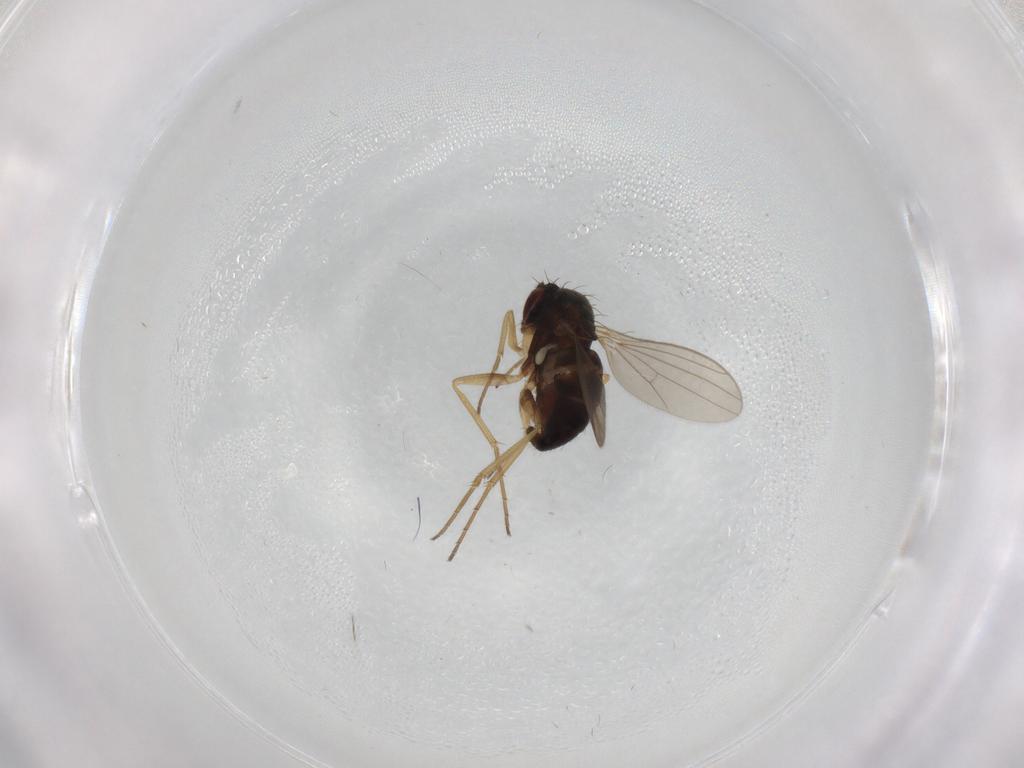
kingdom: Animalia
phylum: Arthropoda
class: Insecta
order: Diptera
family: Dolichopodidae
